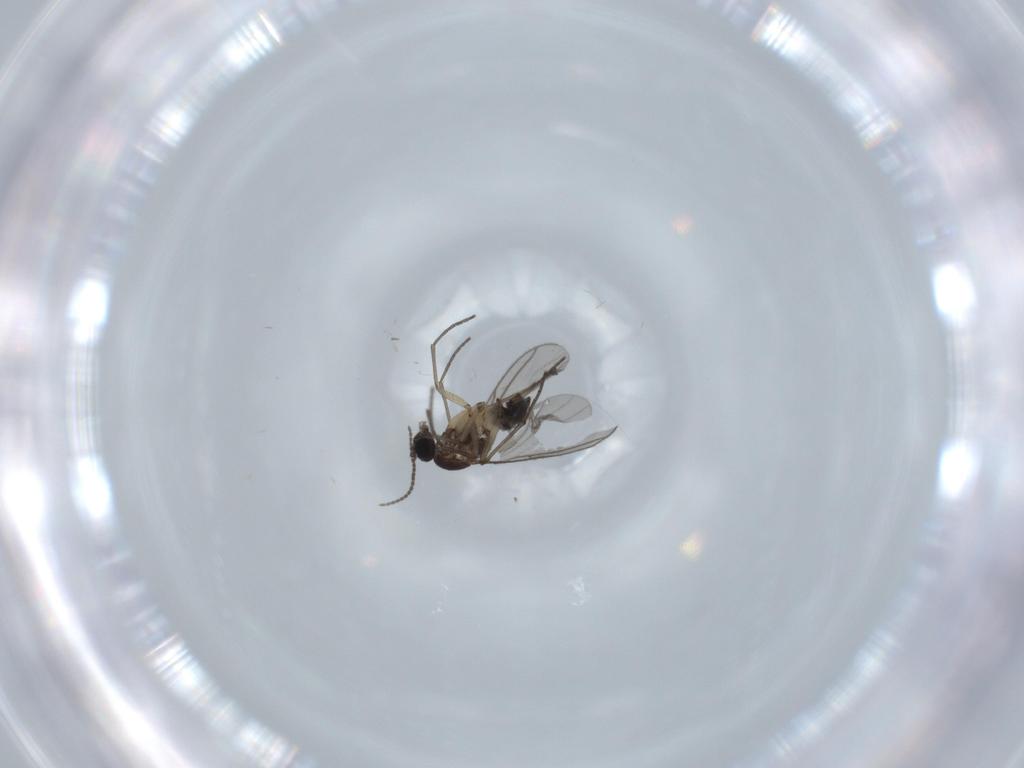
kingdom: Animalia
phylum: Arthropoda
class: Insecta
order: Diptera
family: Sciaridae
